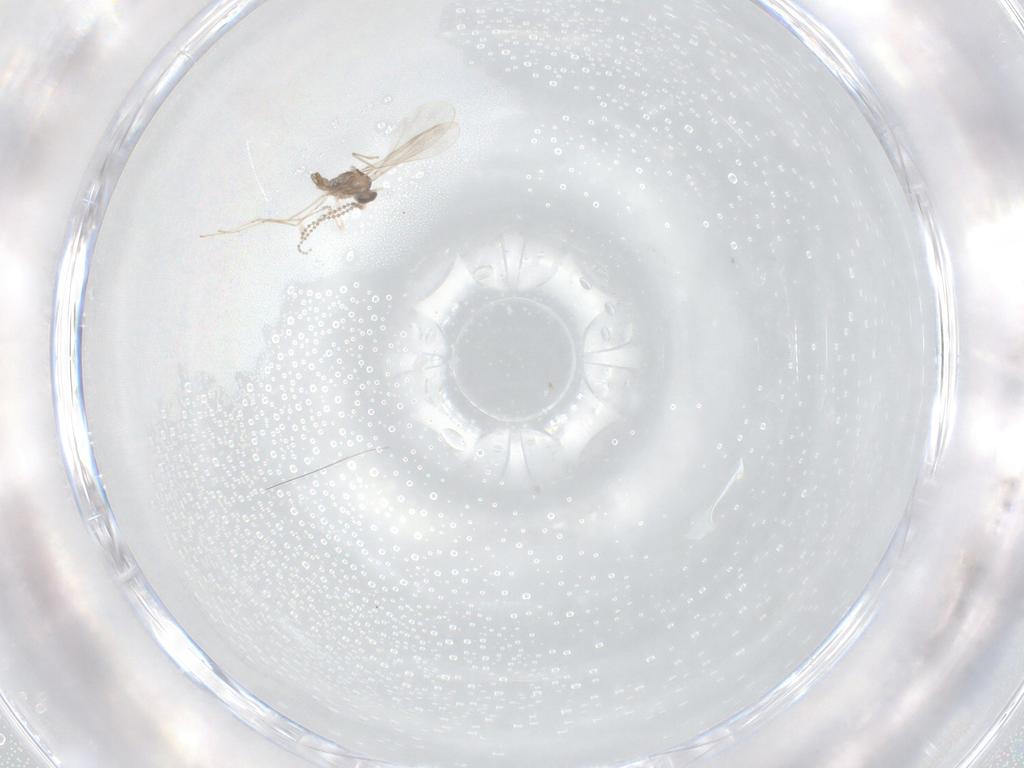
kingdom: Animalia
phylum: Arthropoda
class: Insecta
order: Diptera
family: Cecidomyiidae
